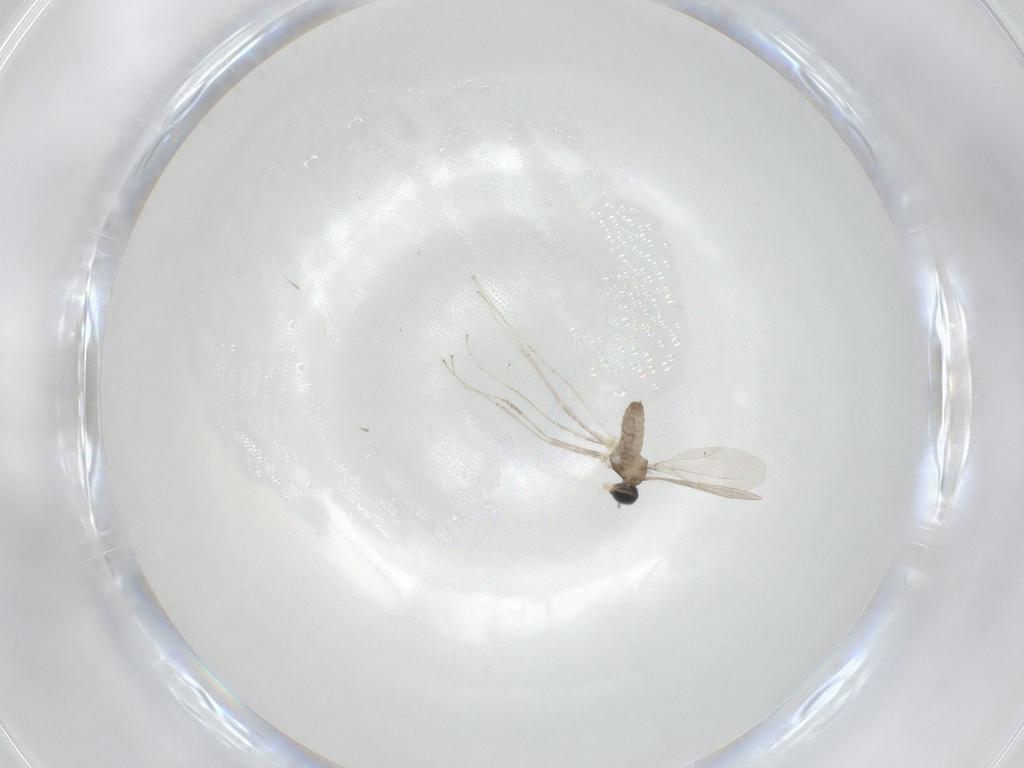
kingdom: Animalia
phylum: Arthropoda
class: Insecta
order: Diptera
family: Cecidomyiidae
